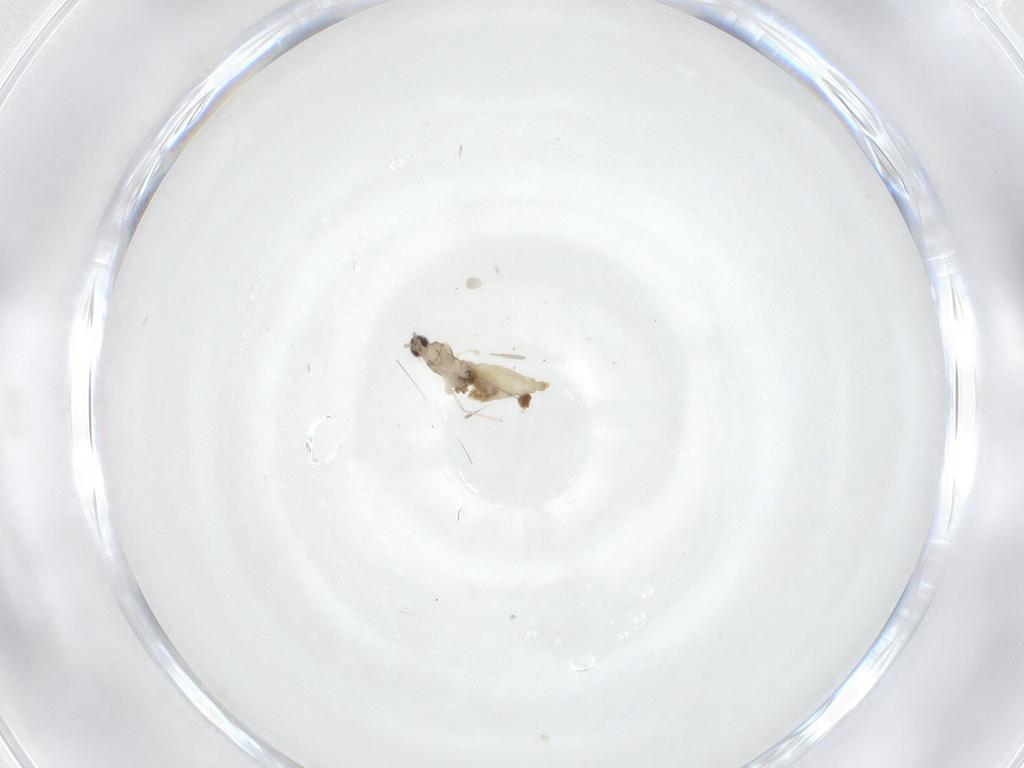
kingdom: Animalia
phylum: Arthropoda
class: Insecta
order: Diptera
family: Cecidomyiidae
